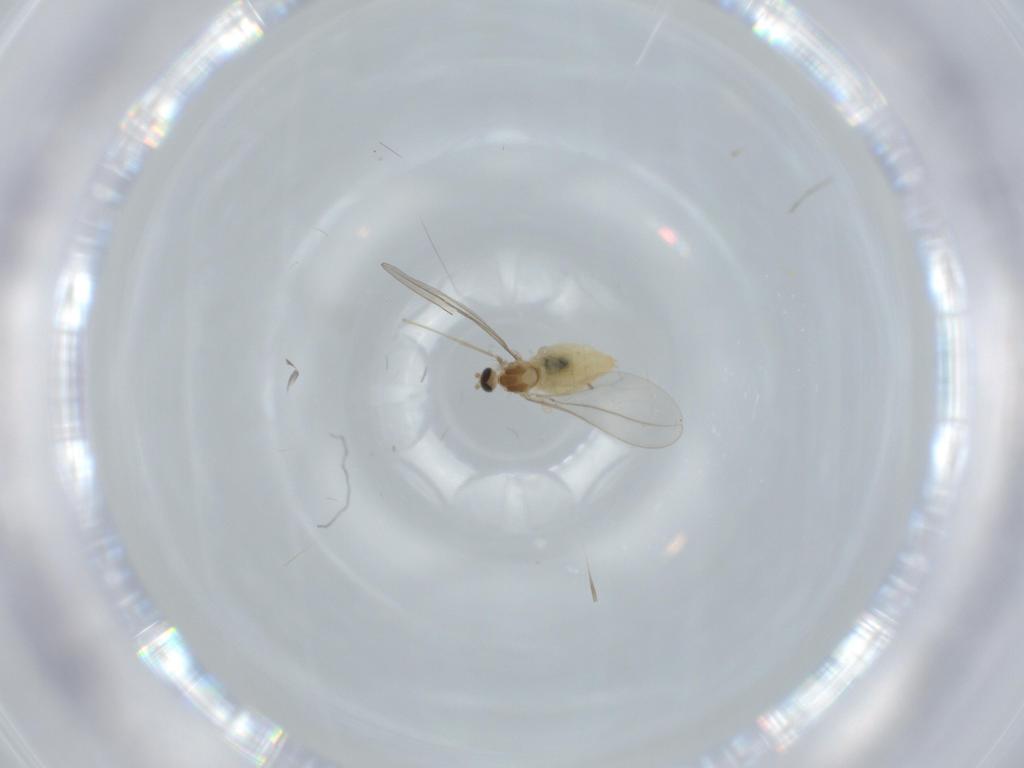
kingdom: Animalia
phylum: Arthropoda
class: Insecta
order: Diptera
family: Cecidomyiidae
